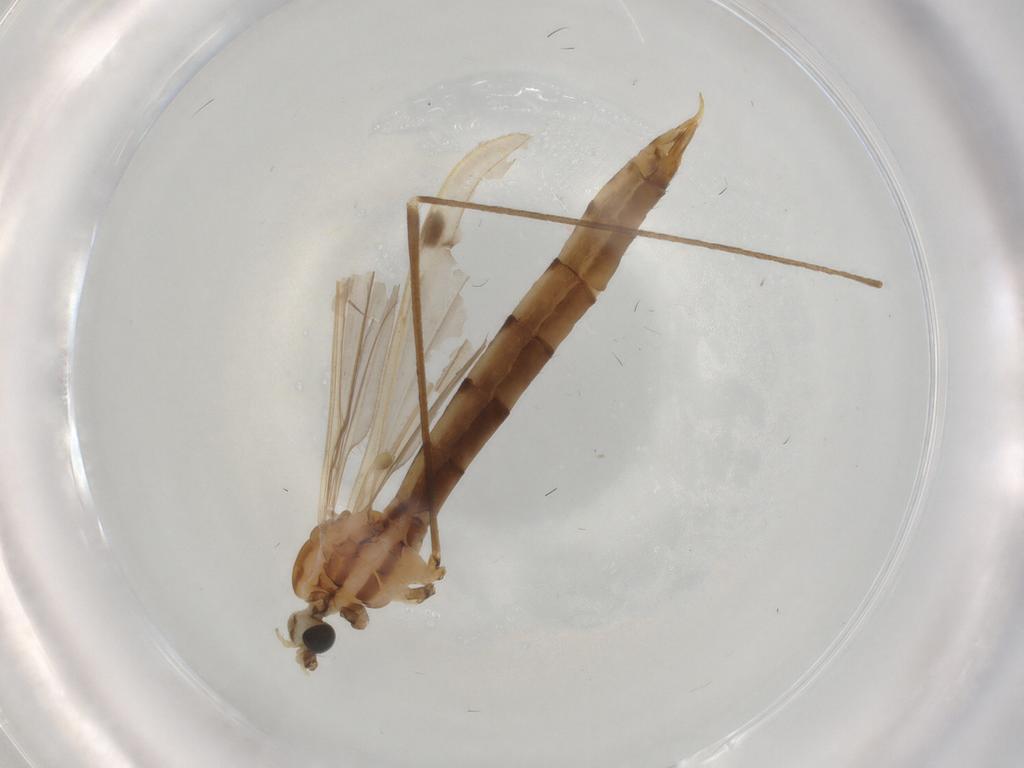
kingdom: Animalia
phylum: Arthropoda
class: Insecta
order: Diptera
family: Limoniidae
